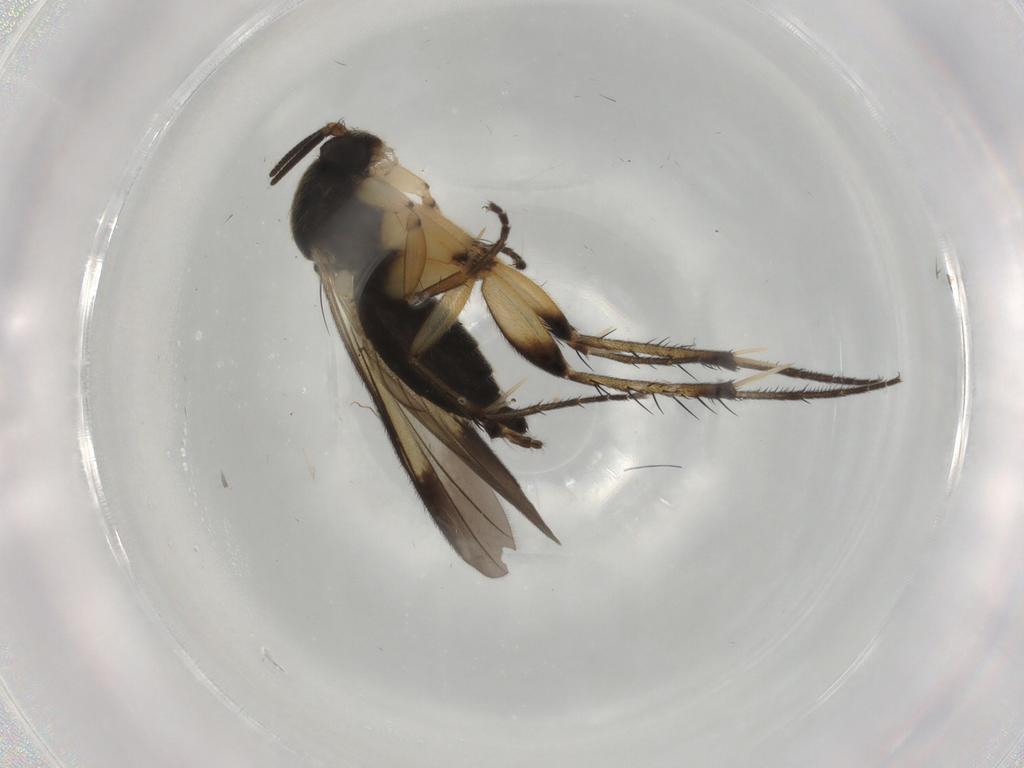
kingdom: Animalia
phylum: Arthropoda
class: Insecta
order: Diptera
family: Mycetophilidae
